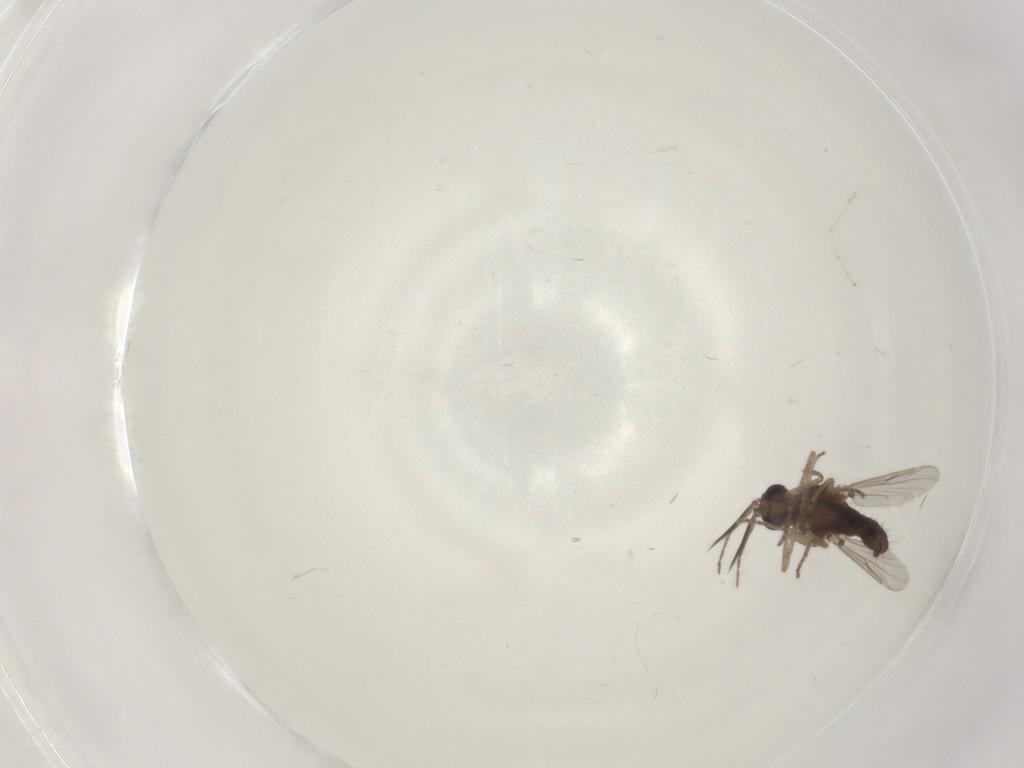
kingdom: Animalia
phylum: Arthropoda
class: Insecta
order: Diptera
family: Ceratopogonidae
